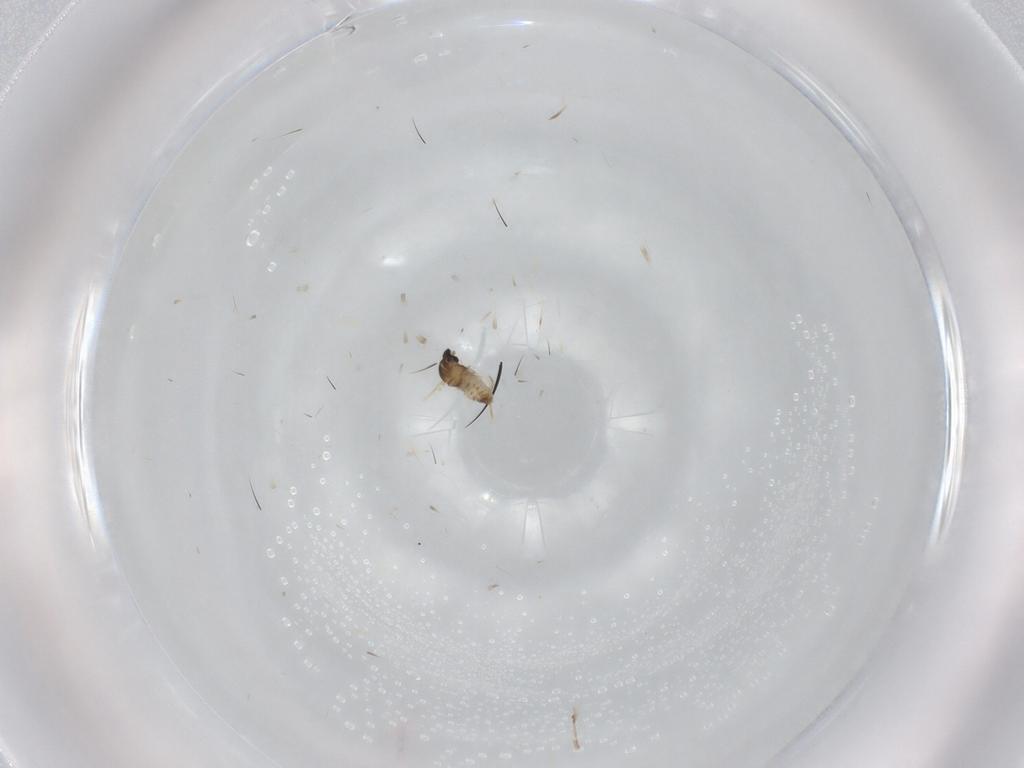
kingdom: Animalia
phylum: Arthropoda
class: Insecta
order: Diptera
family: Cecidomyiidae
